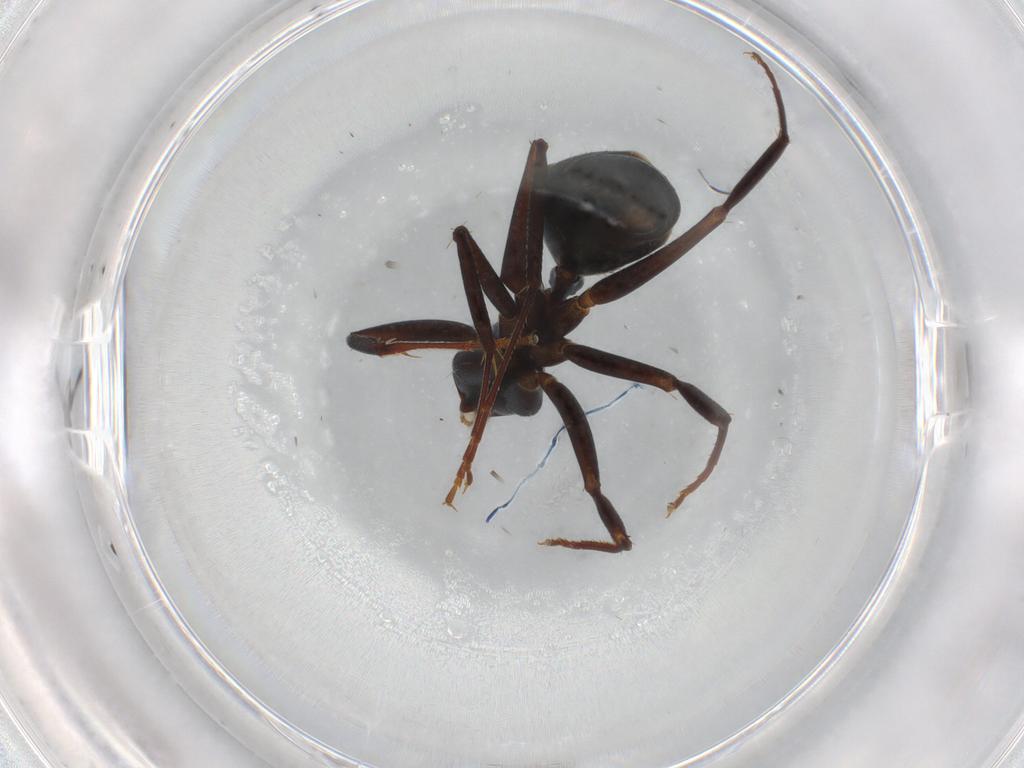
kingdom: Animalia
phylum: Arthropoda
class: Insecta
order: Hymenoptera
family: Formicidae
